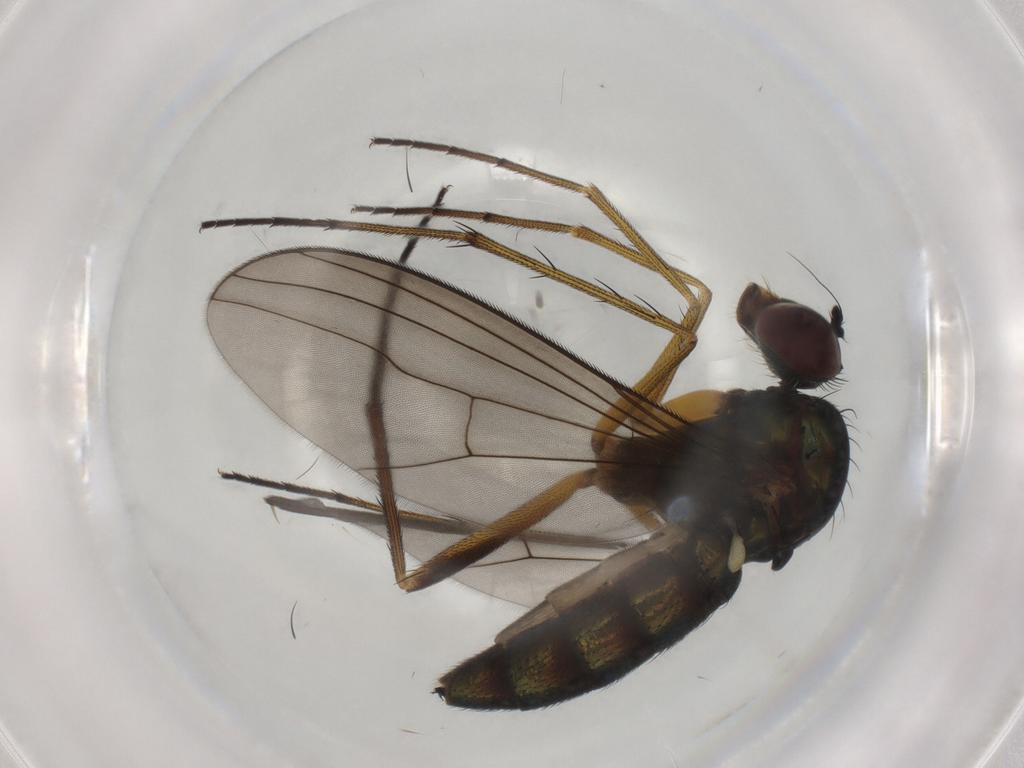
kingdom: Animalia
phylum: Arthropoda
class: Insecta
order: Diptera
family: Dolichopodidae
